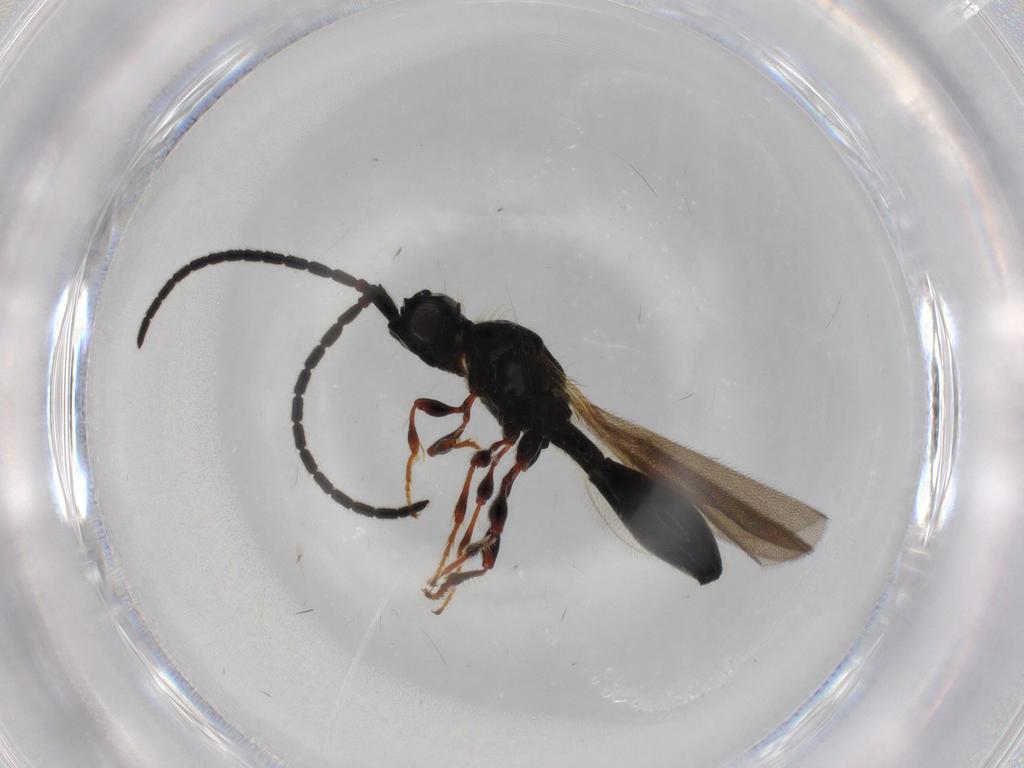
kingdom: Animalia
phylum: Arthropoda
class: Insecta
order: Hymenoptera
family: Diapriidae
